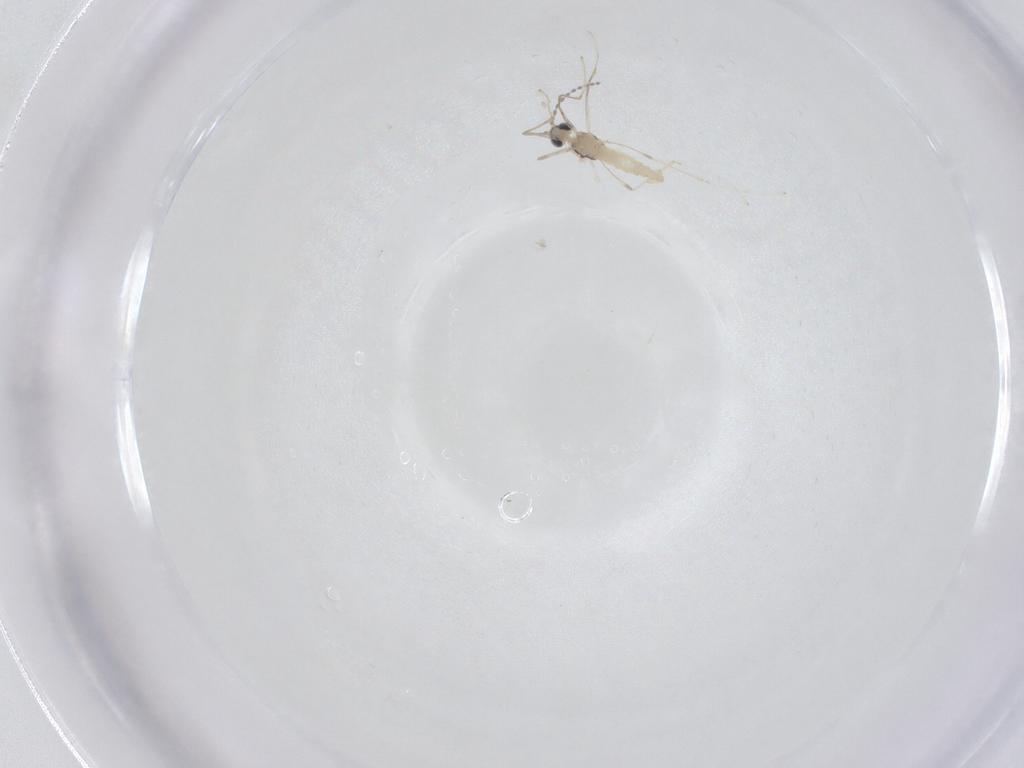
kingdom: Animalia
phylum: Arthropoda
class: Insecta
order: Diptera
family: Cecidomyiidae
